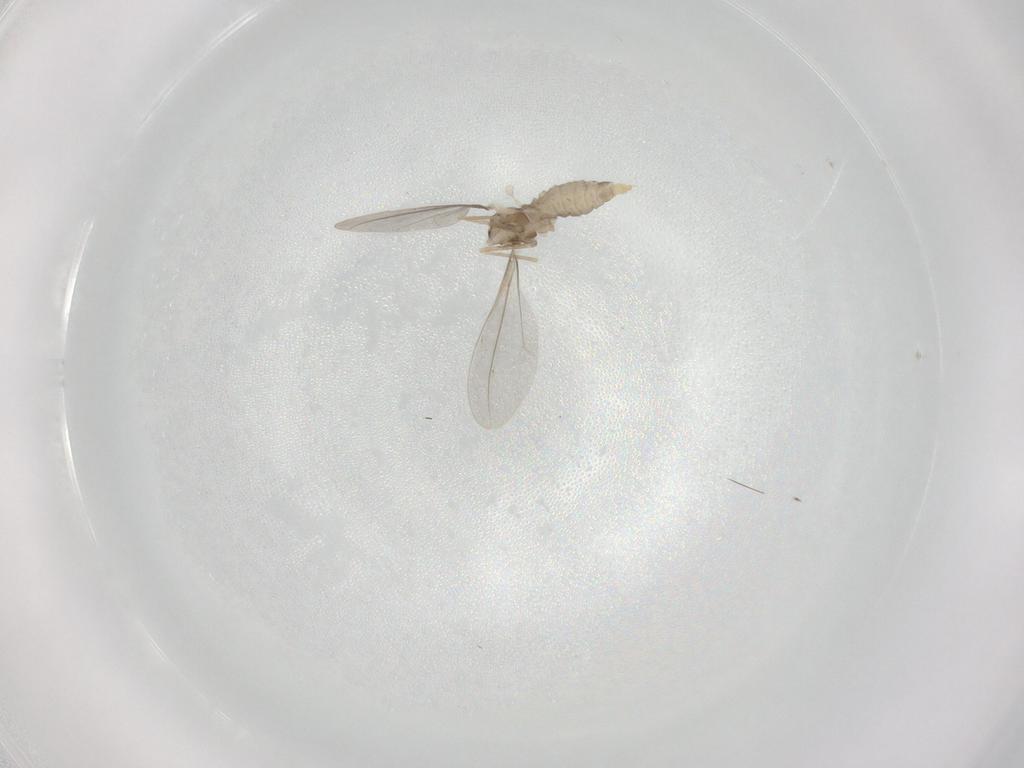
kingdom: Animalia
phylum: Arthropoda
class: Insecta
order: Diptera
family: Cecidomyiidae
